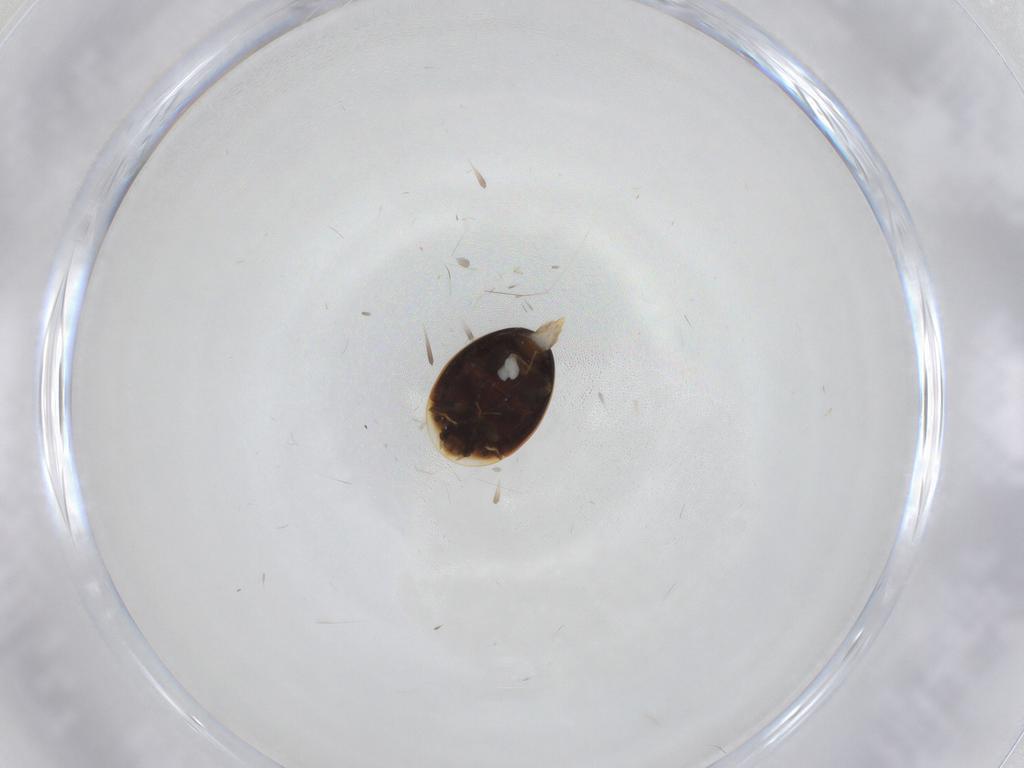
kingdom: Animalia
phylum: Arthropoda
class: Insecta
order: Coleoptera
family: Corylophidae
